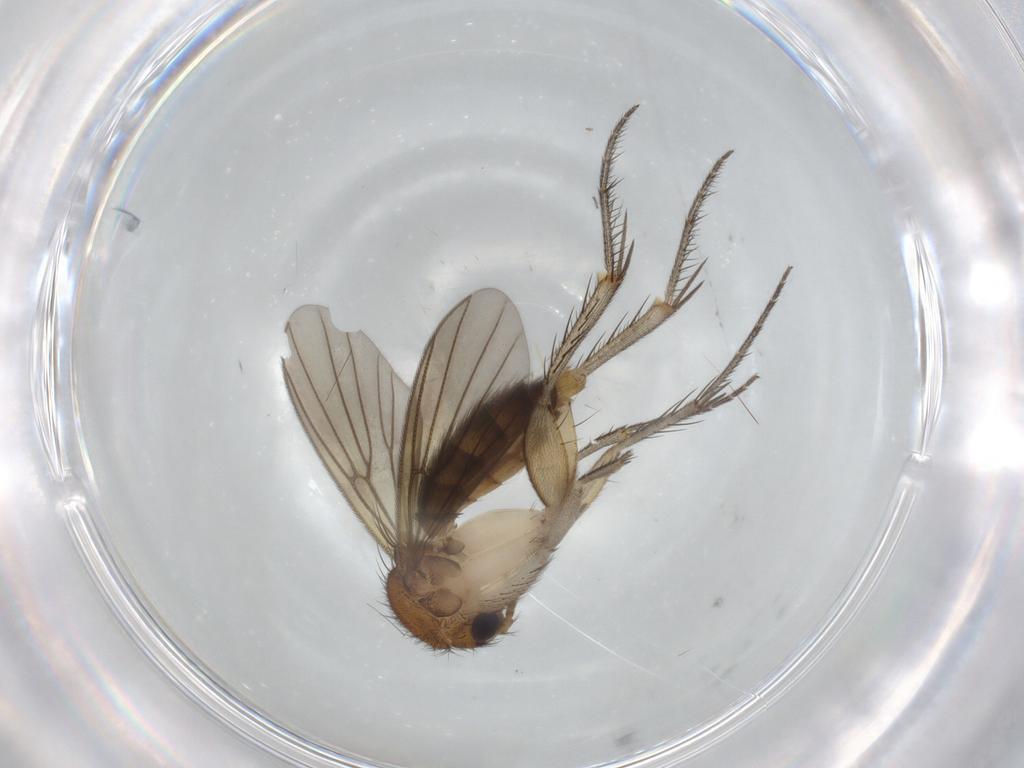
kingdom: Animalia
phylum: Arthropoda
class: Insecta
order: Diptera
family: Mycetophilidae
